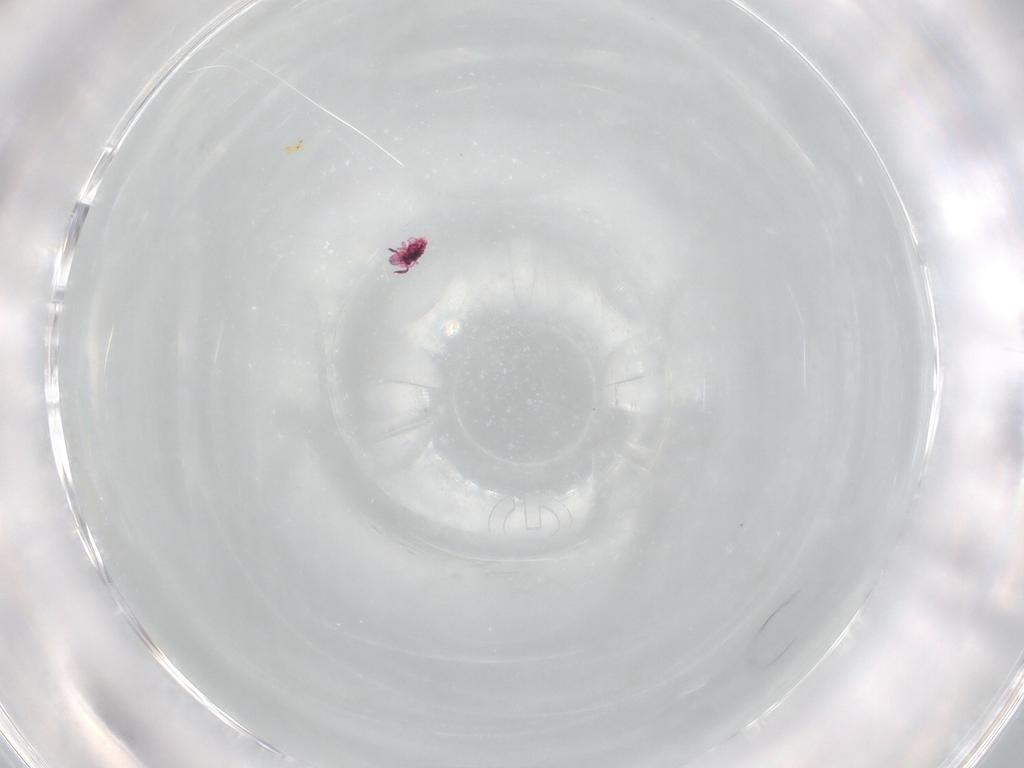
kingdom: Animalia
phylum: Arthropoda
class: Collembola
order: Symphypleona
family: Sminthurididae
